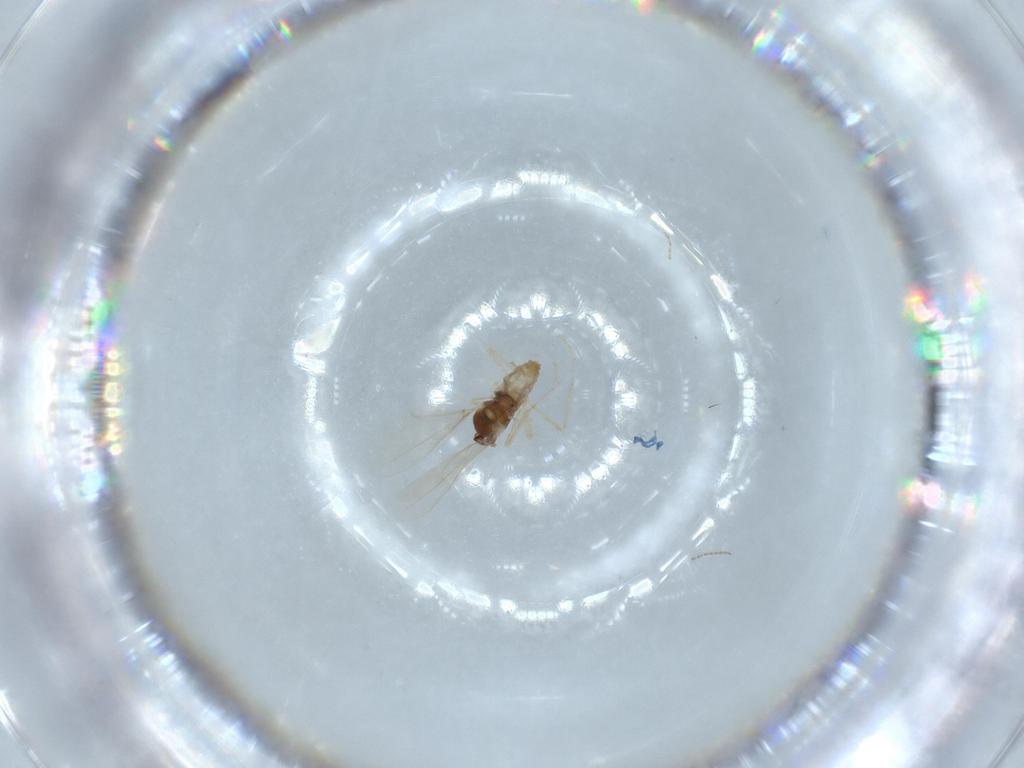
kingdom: Animalia
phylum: Arthropoda
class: Insecta
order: Diptera
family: Cecidomyiidae
